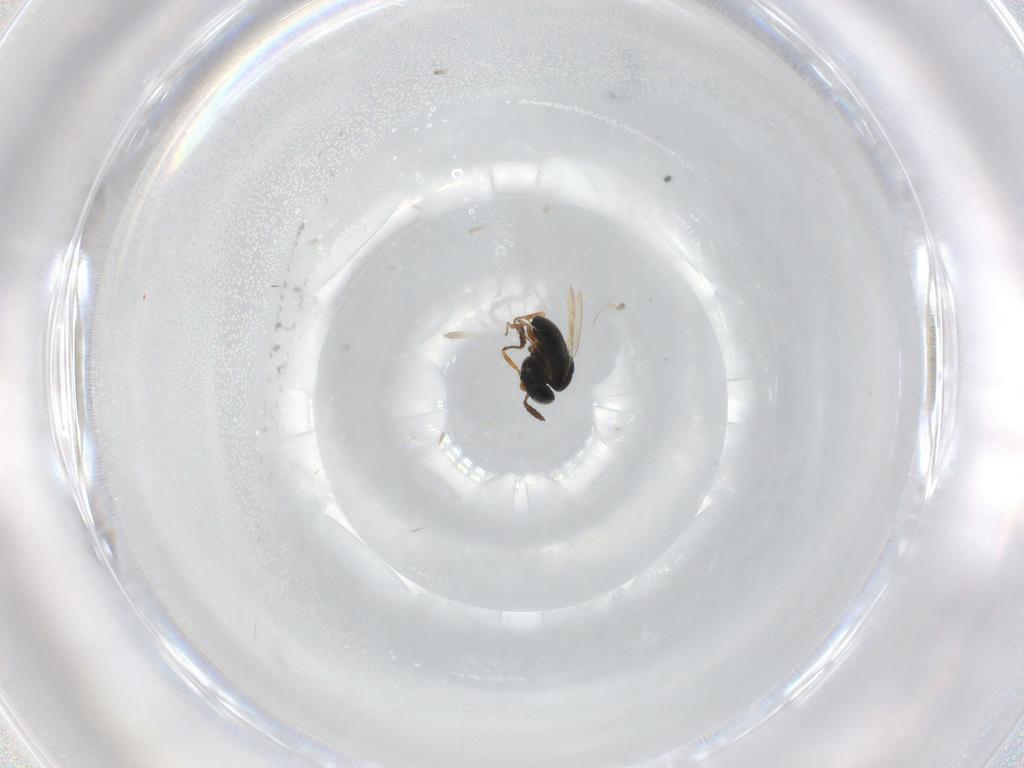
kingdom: Animalia
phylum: Arthropoda
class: Insecta
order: Hymenoptera
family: Scelionidae
